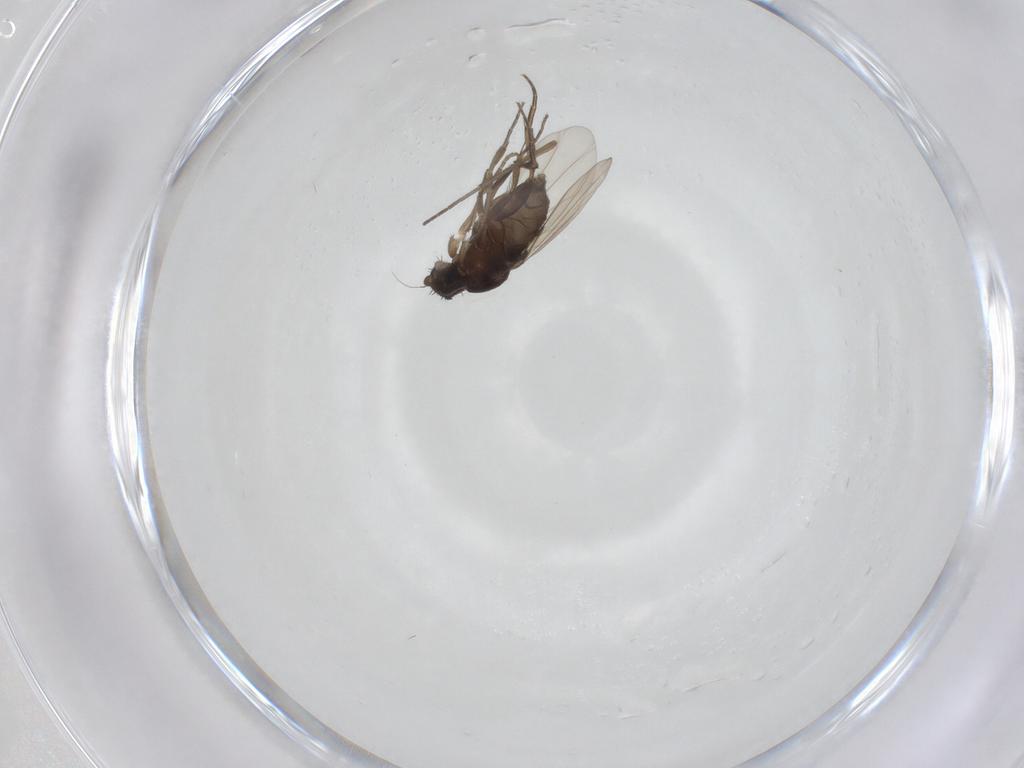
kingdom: Animalia
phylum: Arthropoda
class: Insecta
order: Diptera
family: Phoridae
